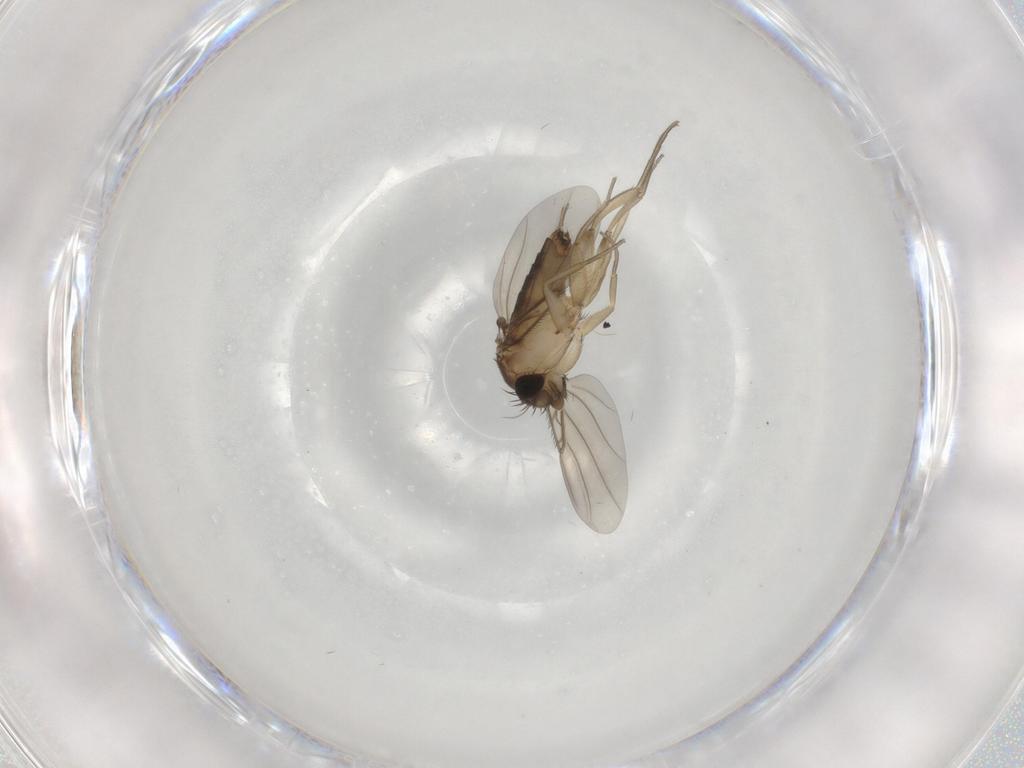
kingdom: Animalia
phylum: Arthropoda
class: Insecta
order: Diptera
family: Phoridae
